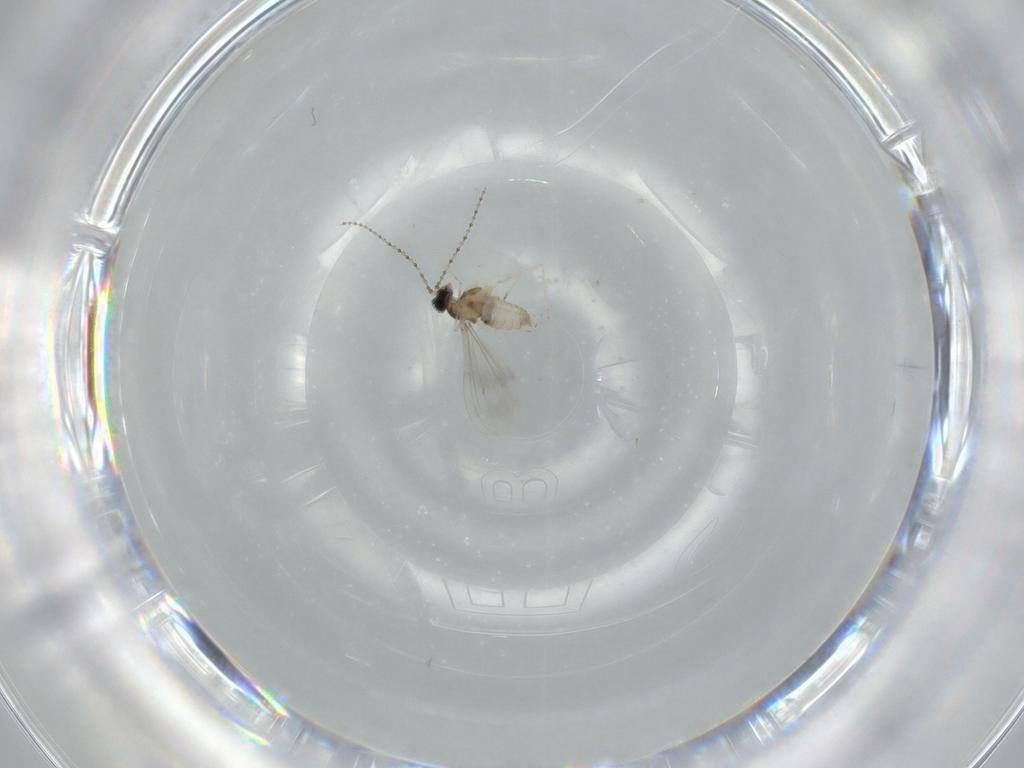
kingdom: Animalia
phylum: Arthropoda
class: Insecta
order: Diptera
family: Cecidomyiidae
